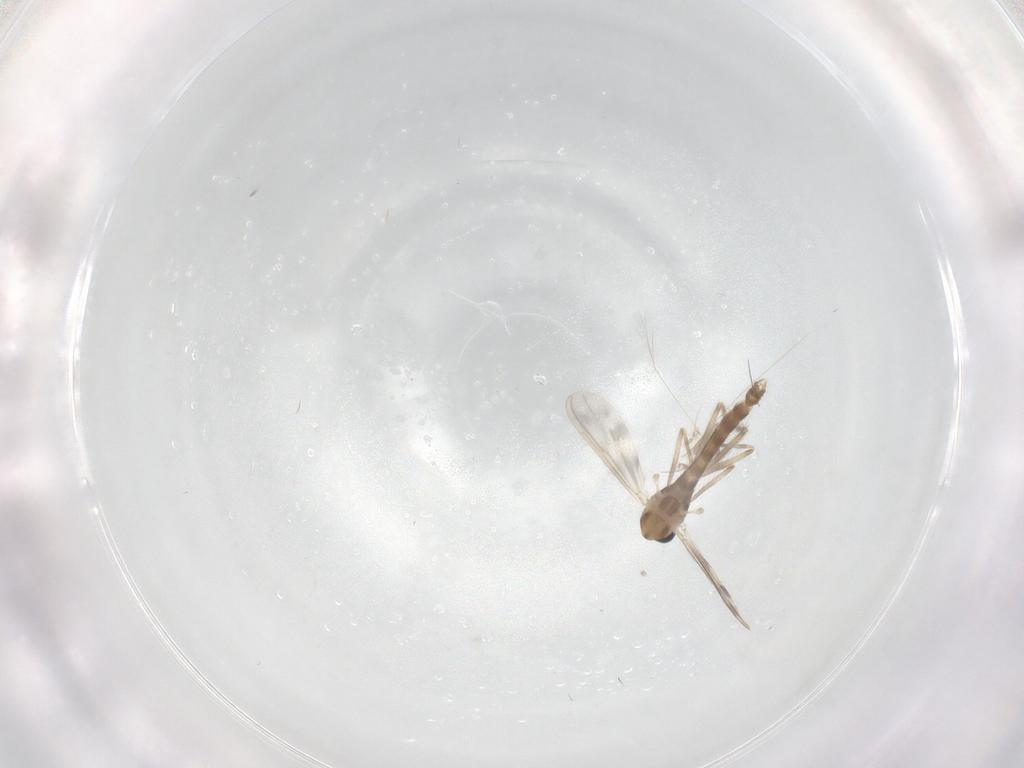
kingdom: Animalia
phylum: Arthropoda
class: Insecta
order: Diptera
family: Chironomidae
